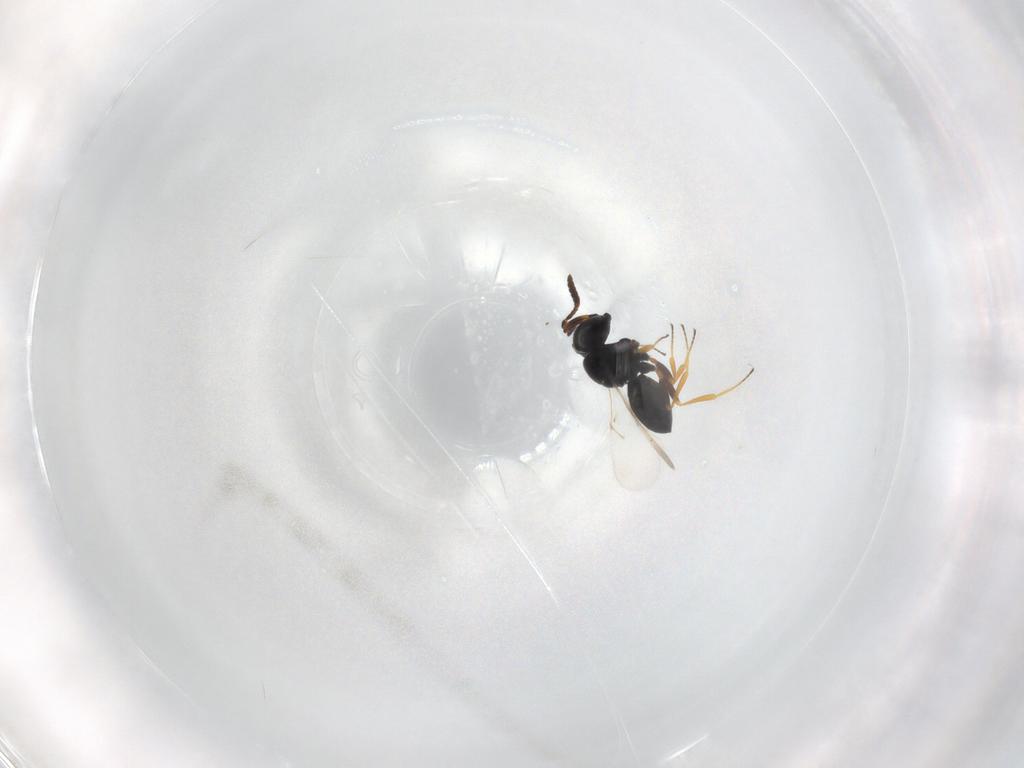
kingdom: Animalia
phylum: Arthropoda
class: Insecta
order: Hymenoptera
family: Scelionidae
